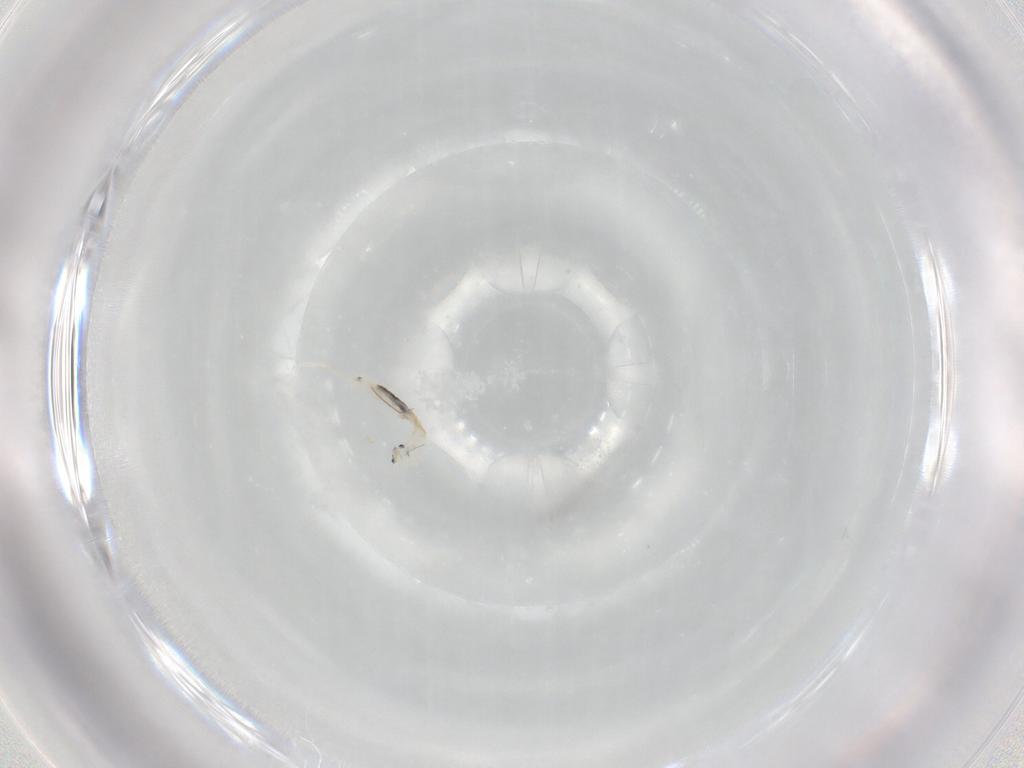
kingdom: Animalia
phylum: Arthropoda
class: Collembola
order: Entomobryomorpha
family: Entomobryidae
